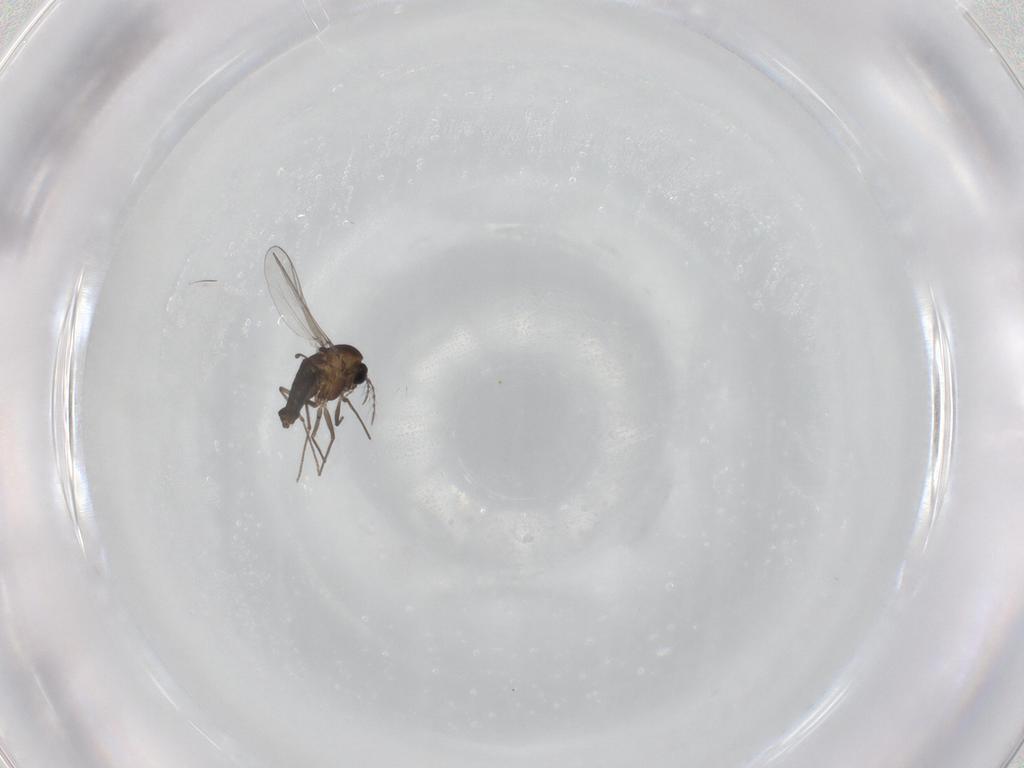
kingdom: Animalia
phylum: Arthropoda
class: Insecta
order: Diptera
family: Chironomidae
